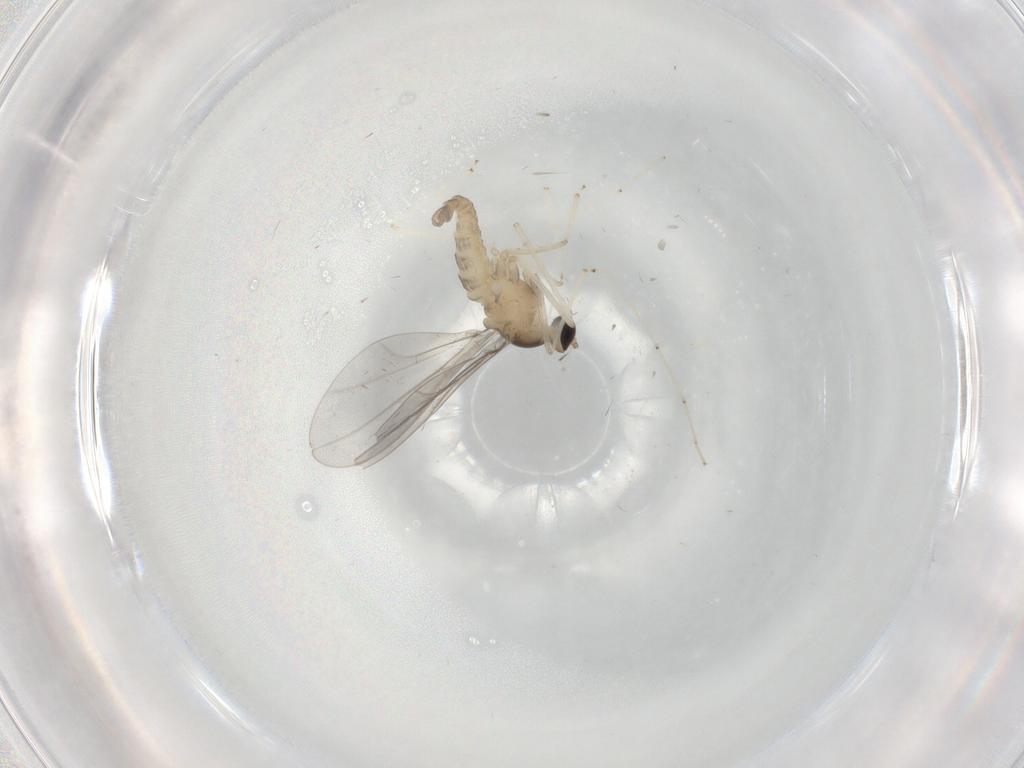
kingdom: Animalia
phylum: Arthropoda
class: Insecta
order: Diptera
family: Cecidomyiidae
